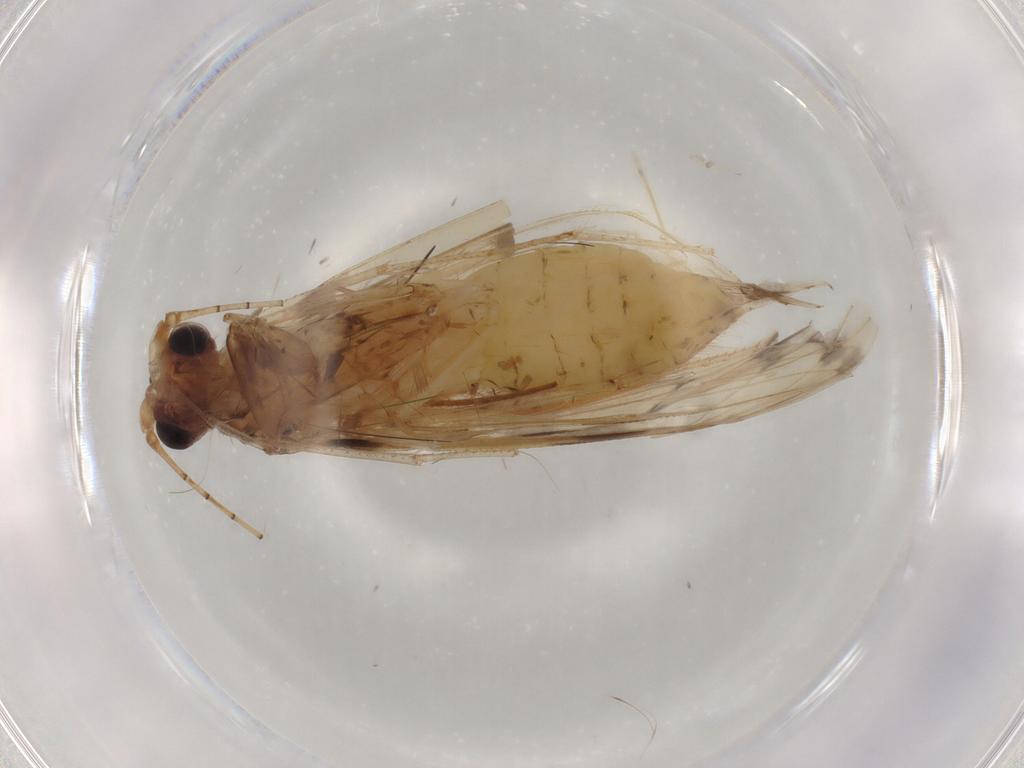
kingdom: Animalia
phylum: Arthropoda
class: Insecta
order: Trichoptera
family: Leptoceridae
